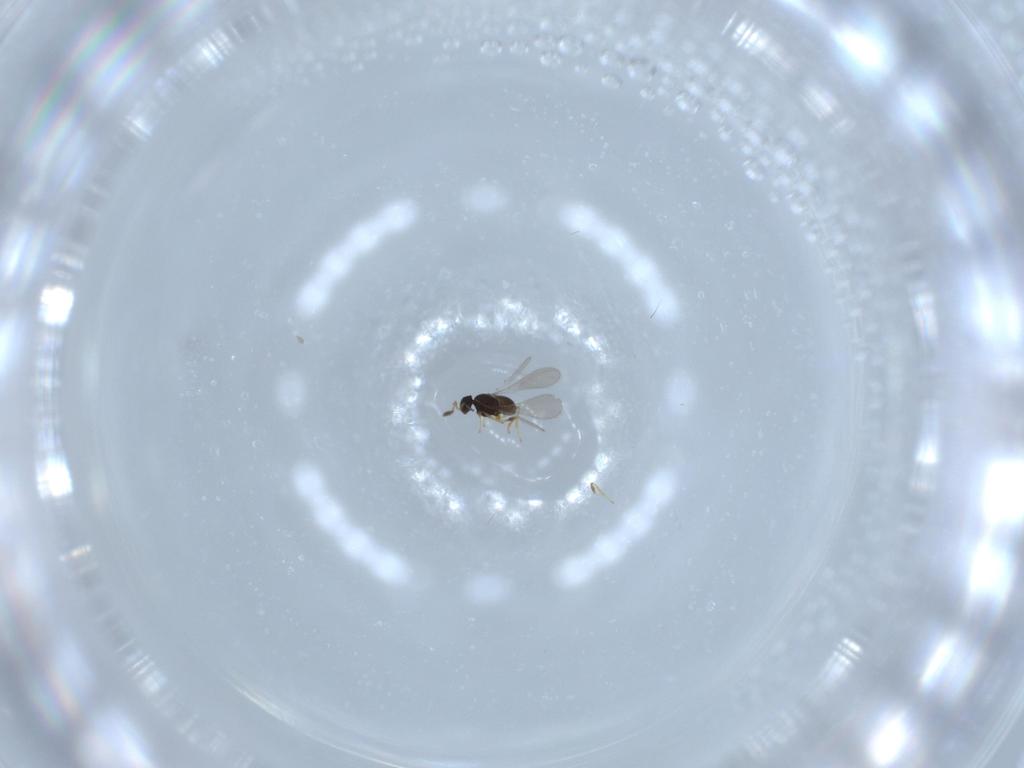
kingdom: Animalia
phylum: Arthropoda
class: Insecta
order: Hymenoptera
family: Platygastridae
